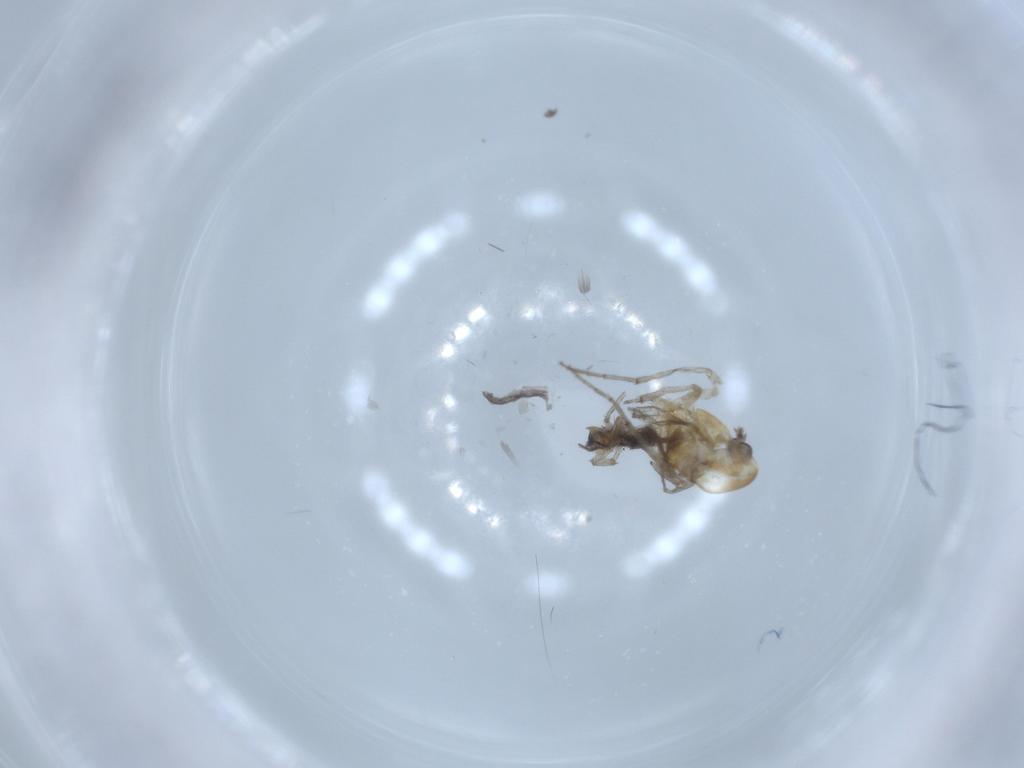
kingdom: Animalia
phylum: Arthropoda
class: Insecta
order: Diptera
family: Chironomidae
